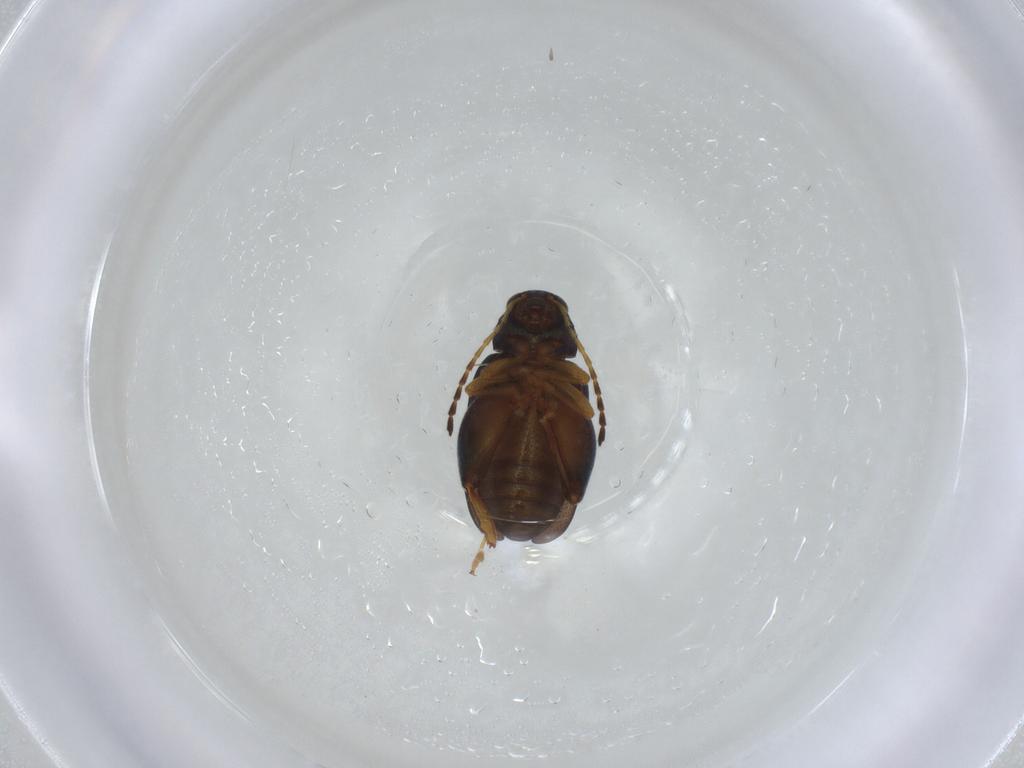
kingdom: Animalia
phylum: Arthropoda
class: Insecta
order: Coleoptera
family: Chrysomelidae
